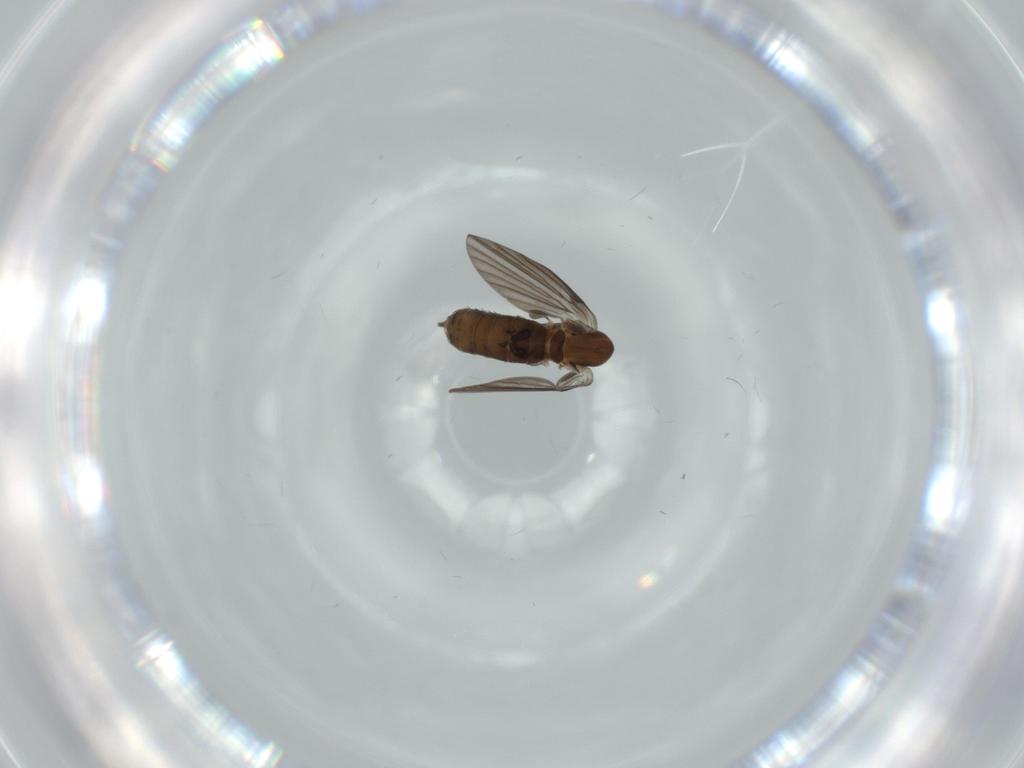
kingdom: Animalia
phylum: Arthropoda
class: Insecta
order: Diptera
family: Psychodidae
